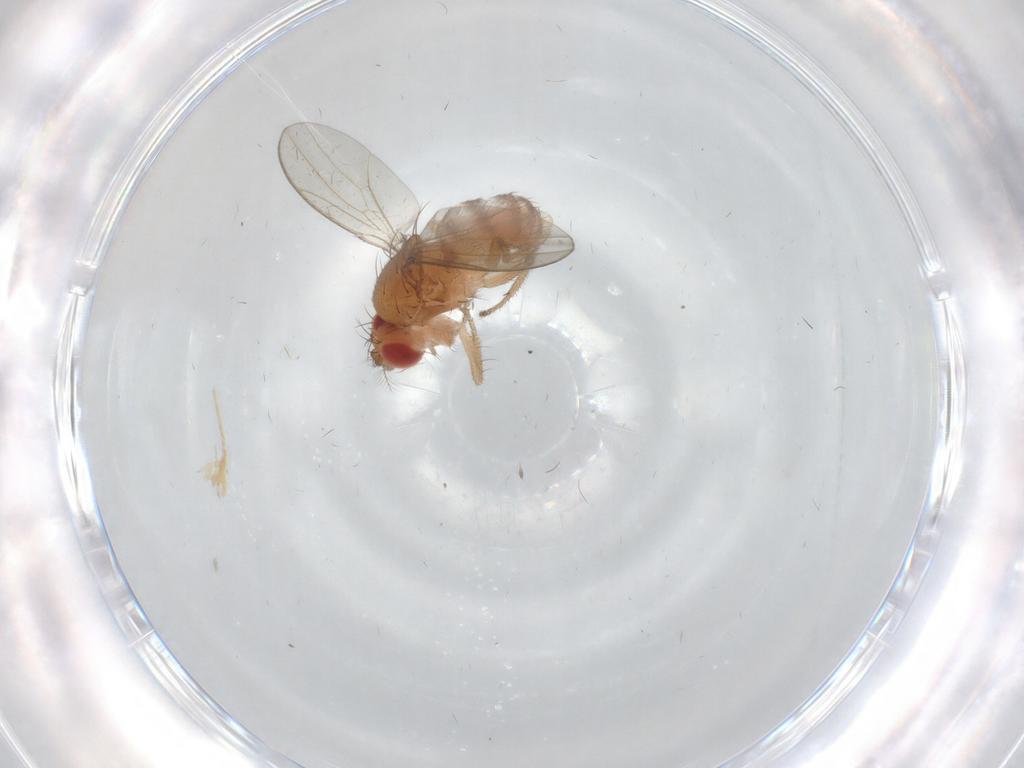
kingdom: Animalia
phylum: Arthropoda
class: Insecta
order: Diptera
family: Drosophilidae
